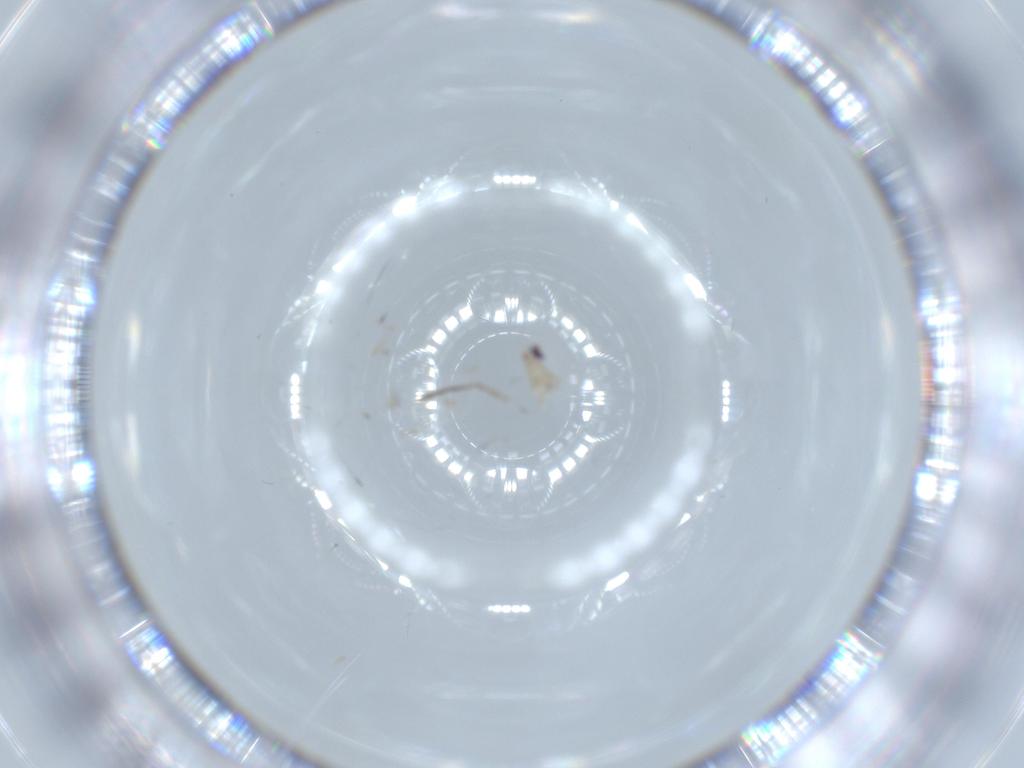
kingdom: Animalia
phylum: Arthropoda
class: Insecta
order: Diptera
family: Cecidomyiidae
